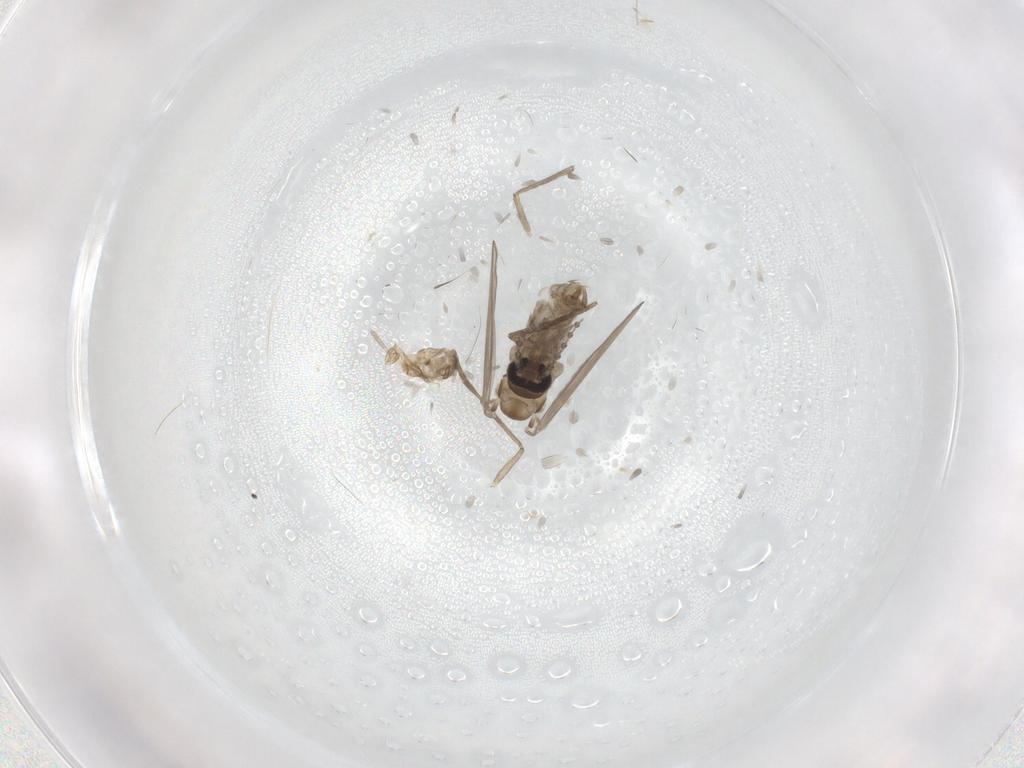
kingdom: Animalia
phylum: Arthropoda
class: Insecta
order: Diptera
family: Psychodidae
